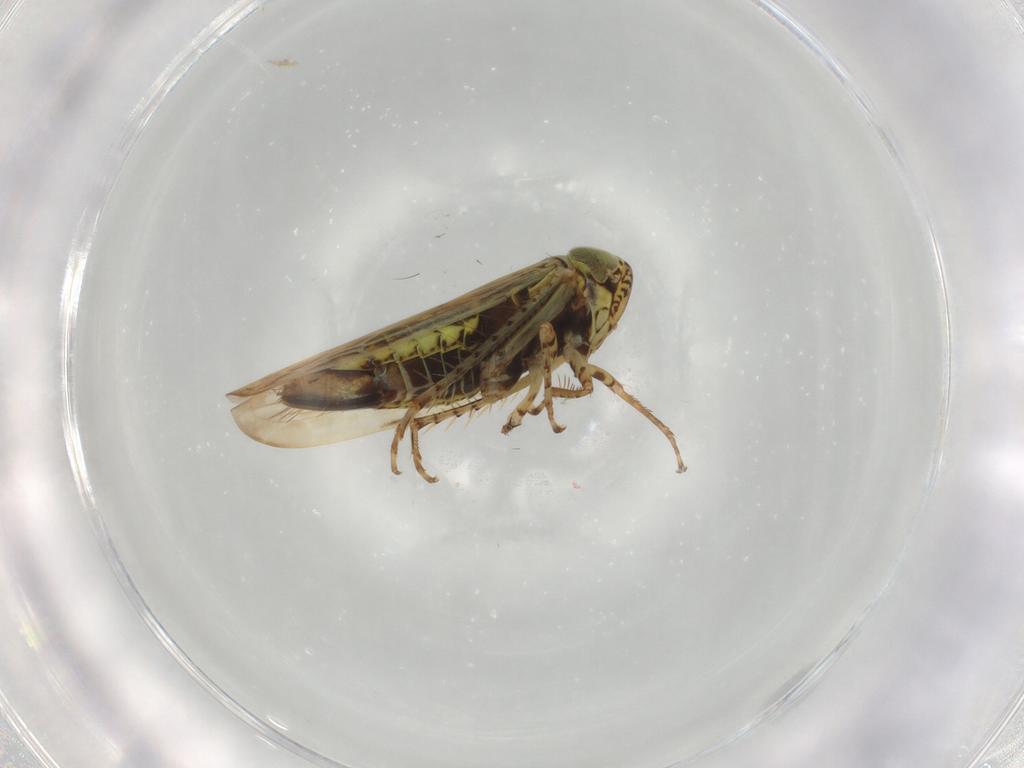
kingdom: Animalia
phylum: Arthropoda
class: Insecta
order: Hemiptera
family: Cicadellidae
